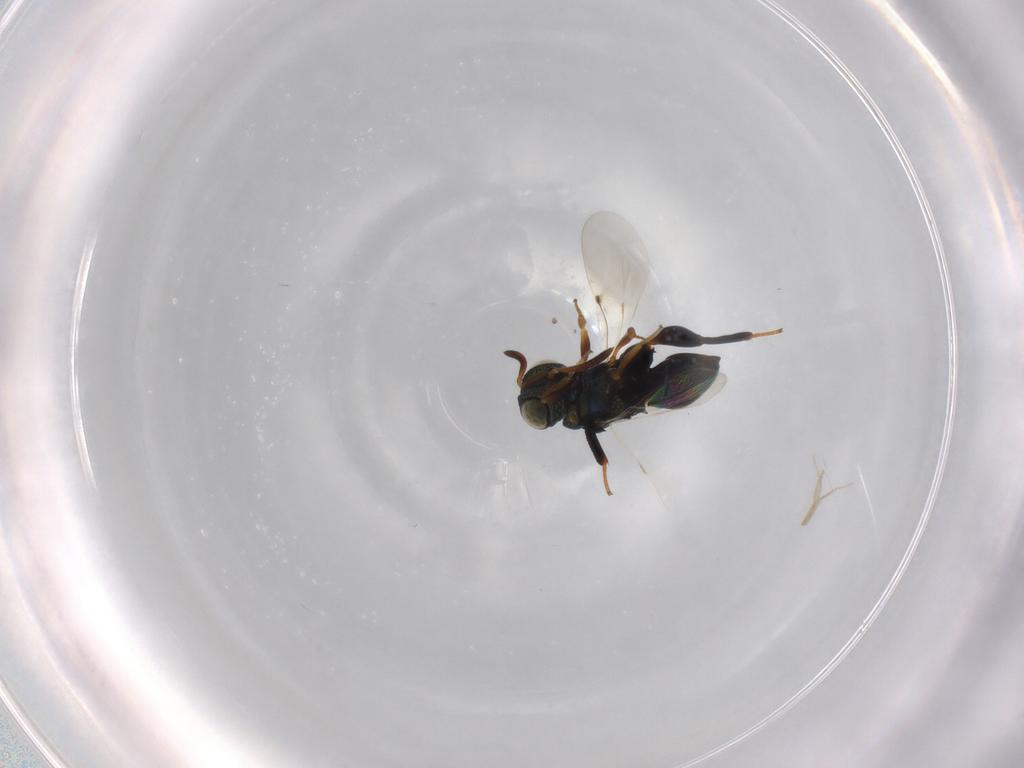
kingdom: Animalia
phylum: Arthropoda
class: Insecta
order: Hymenoptera
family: Chalcididae
